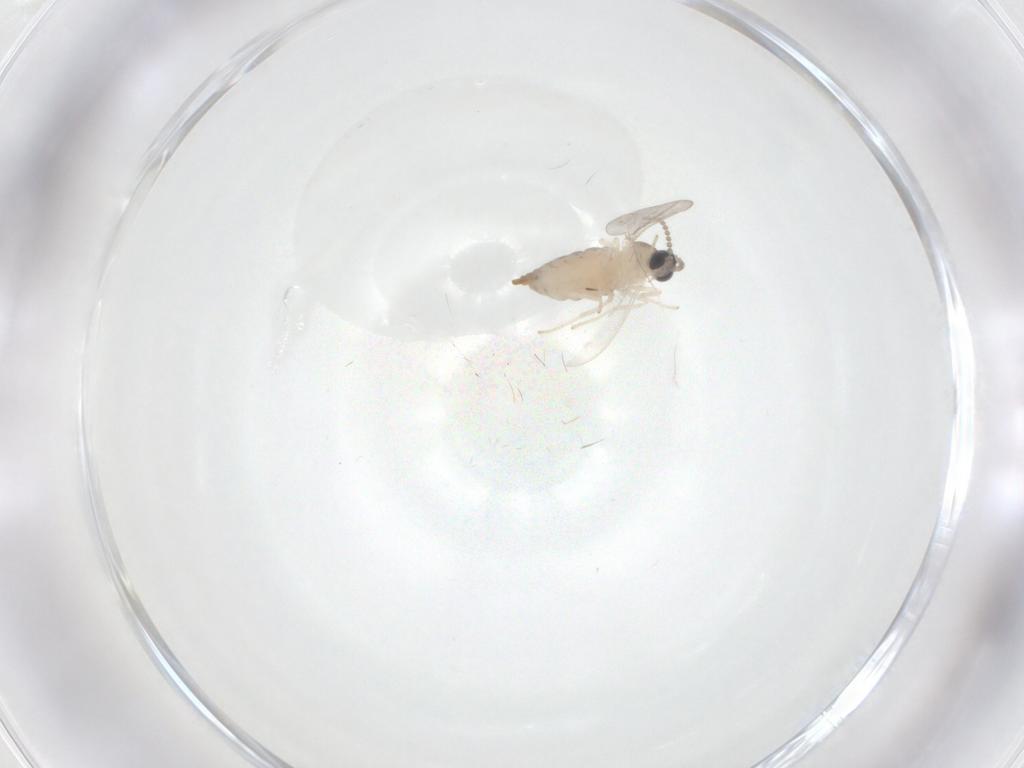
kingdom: Animalia
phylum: Arthropoda
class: Insecta
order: Diptera
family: Cecidomyiidae
